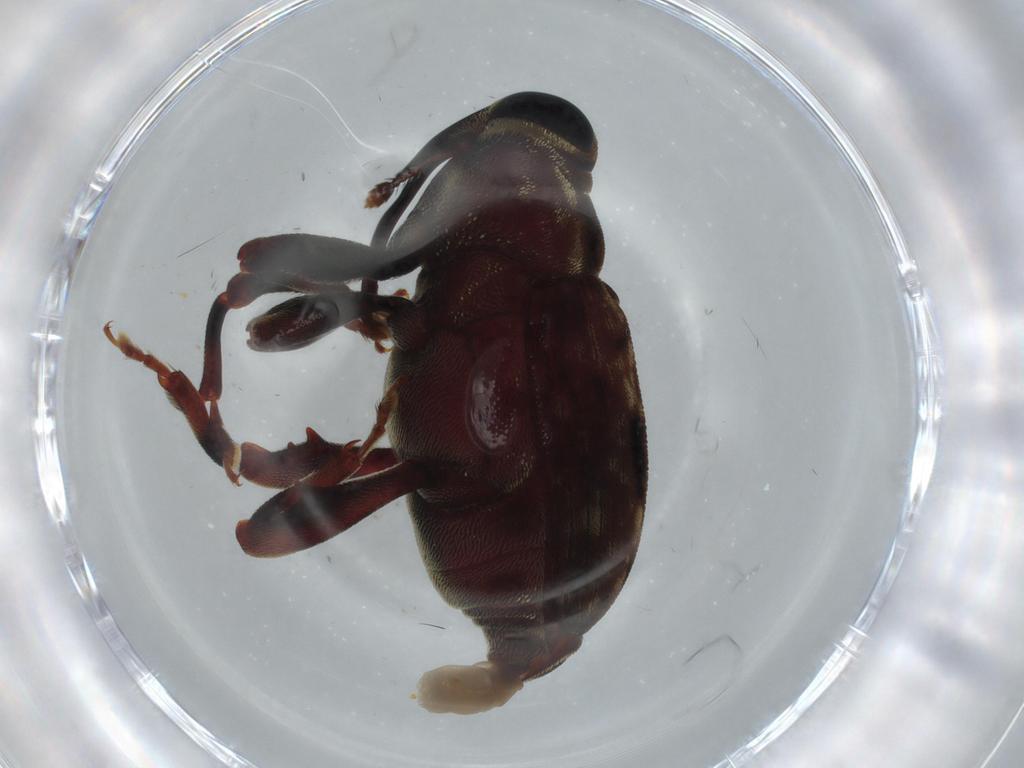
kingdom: Animalia
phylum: Arthropoda
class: Insecta
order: Coleoptera
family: Curculionidae
